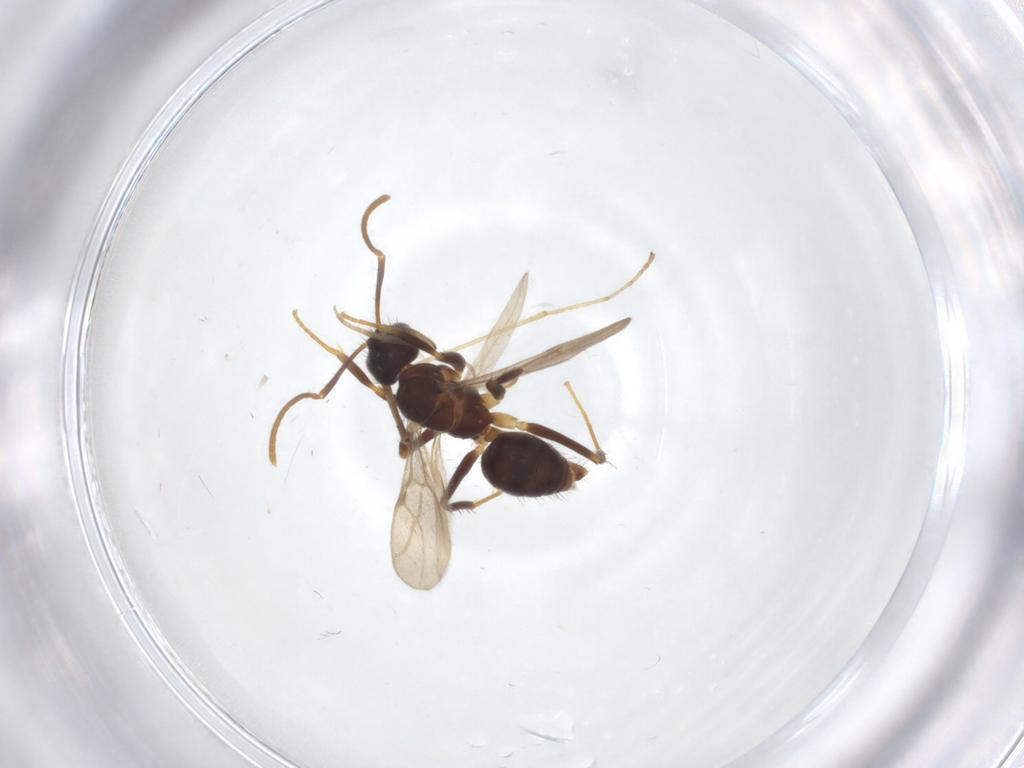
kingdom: Animalia
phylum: Arthropoda
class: Insecta
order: Hymenoptera
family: Formicidae
